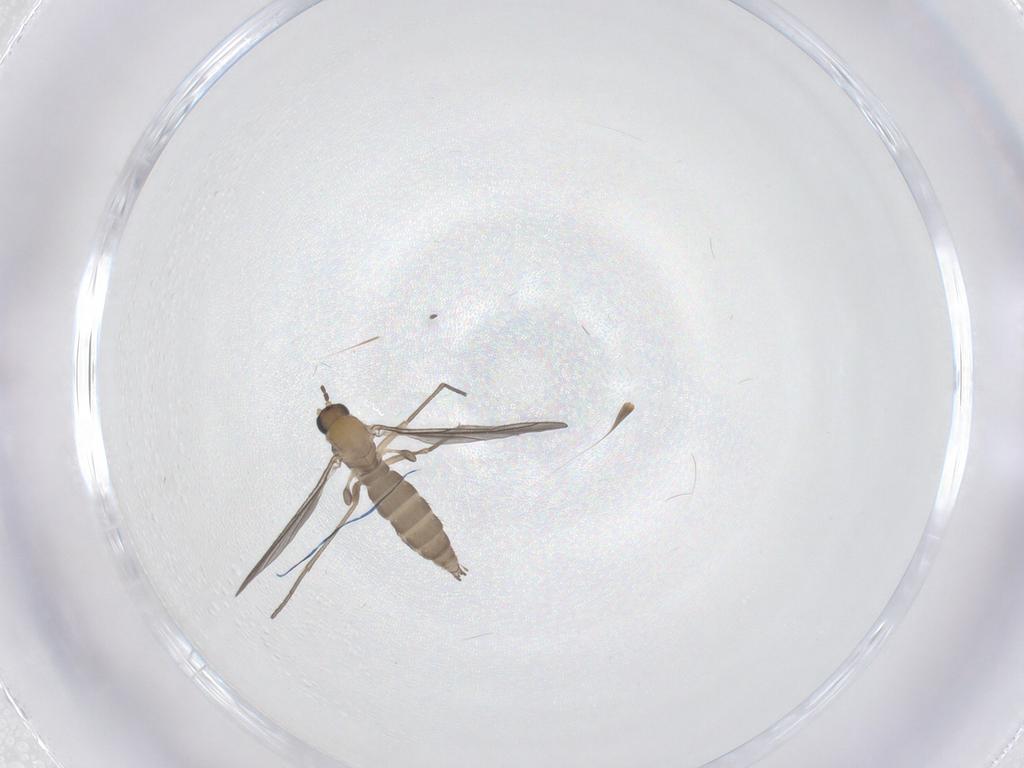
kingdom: Animalia
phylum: Arthropoda
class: Insecta
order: Diptera
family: Sciaridae
